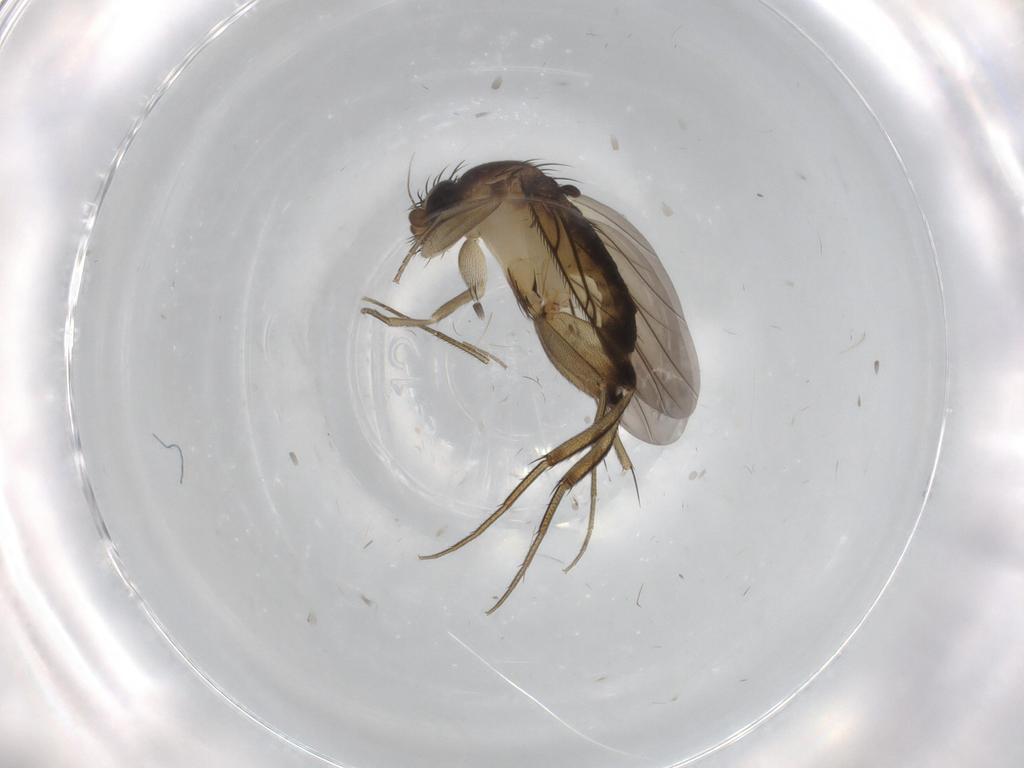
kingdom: Animalia
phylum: Arthropoda
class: Insecta
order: Diptera
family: Phoridae
